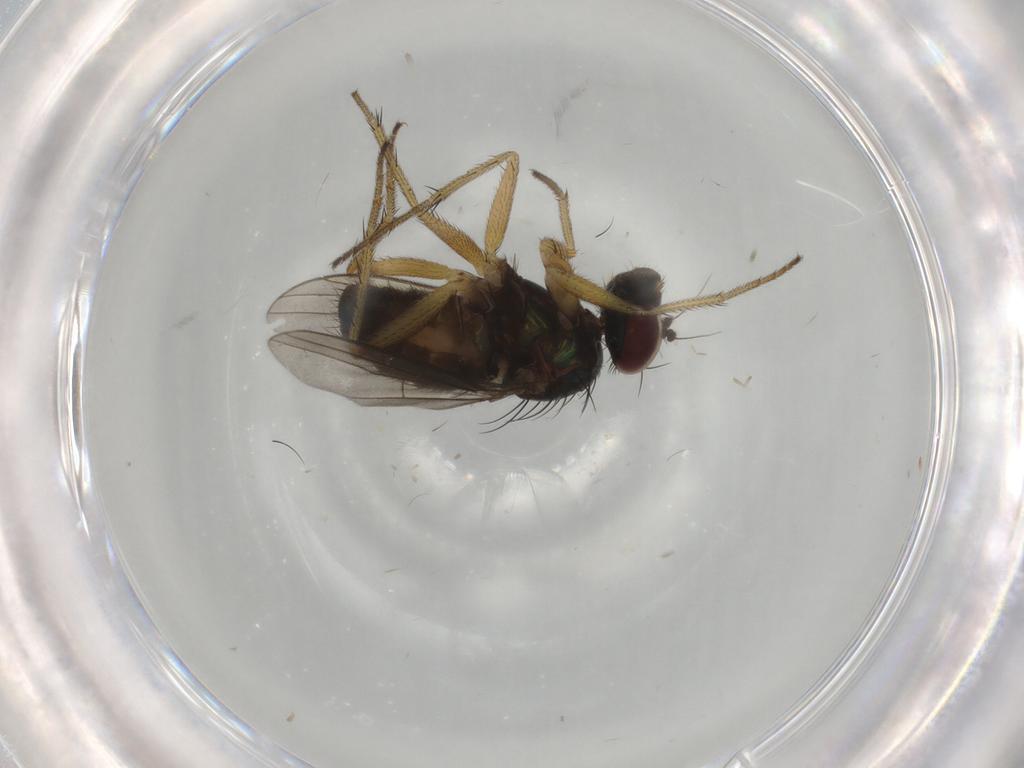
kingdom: Animalia
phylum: Arthropoda
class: Insecta
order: Diptera
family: Dolichopodidae
